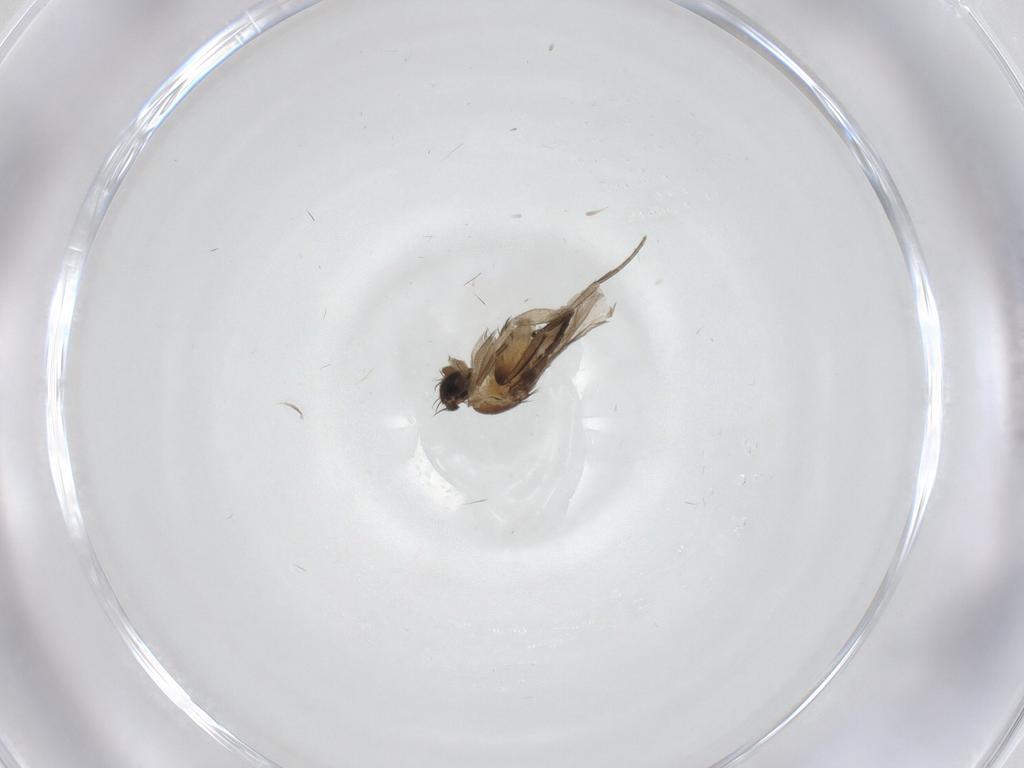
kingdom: Animalia
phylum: Arthropoda
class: Insecta
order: Diptera
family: Phoridae
